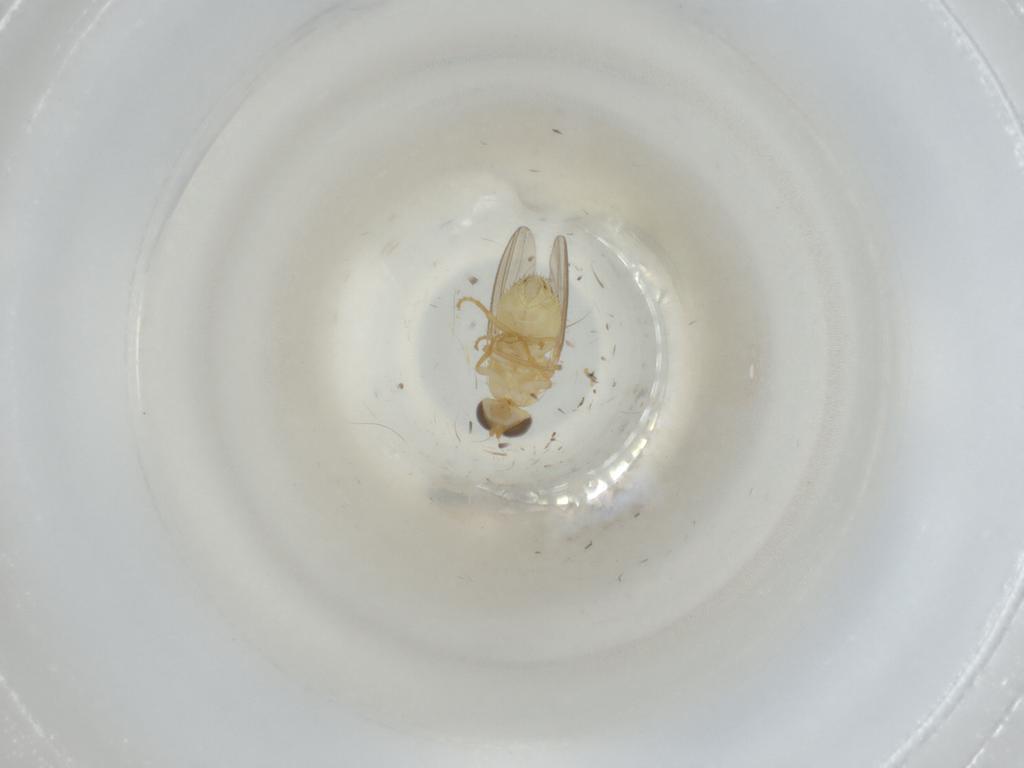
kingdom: Animalia
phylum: Arthropoda
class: Insecta
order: Diptera
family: Chyromyidae
